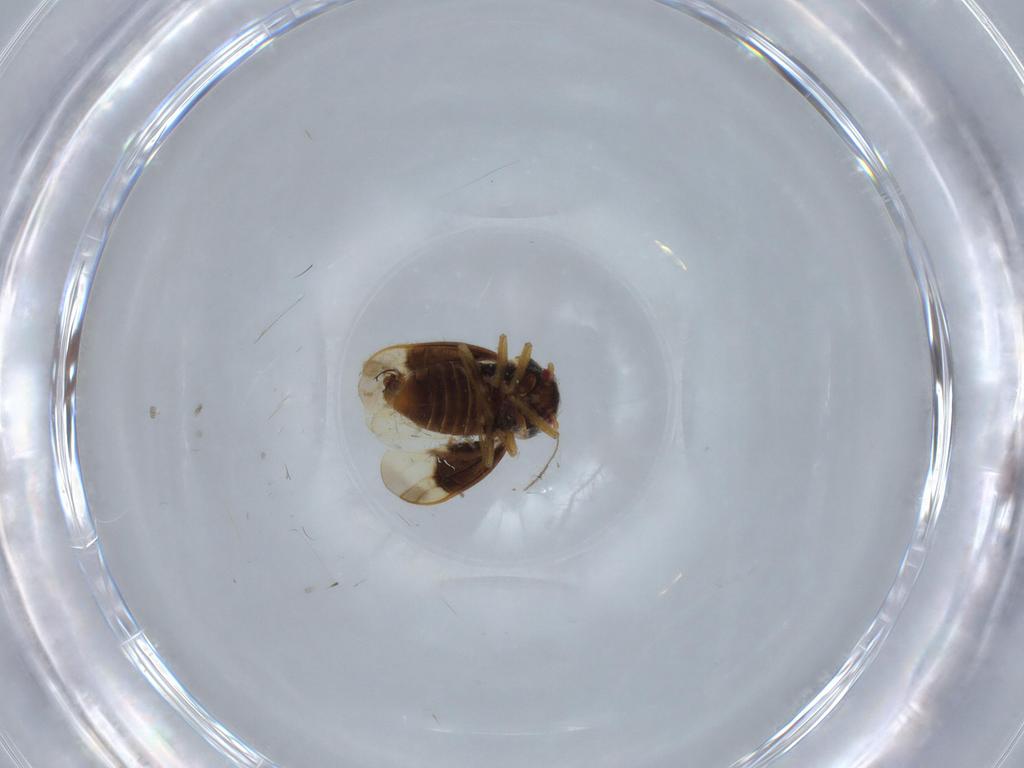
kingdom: Animalia
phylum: Arthropoda
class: Insecta
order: Hemiptera
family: Schizopteridae
